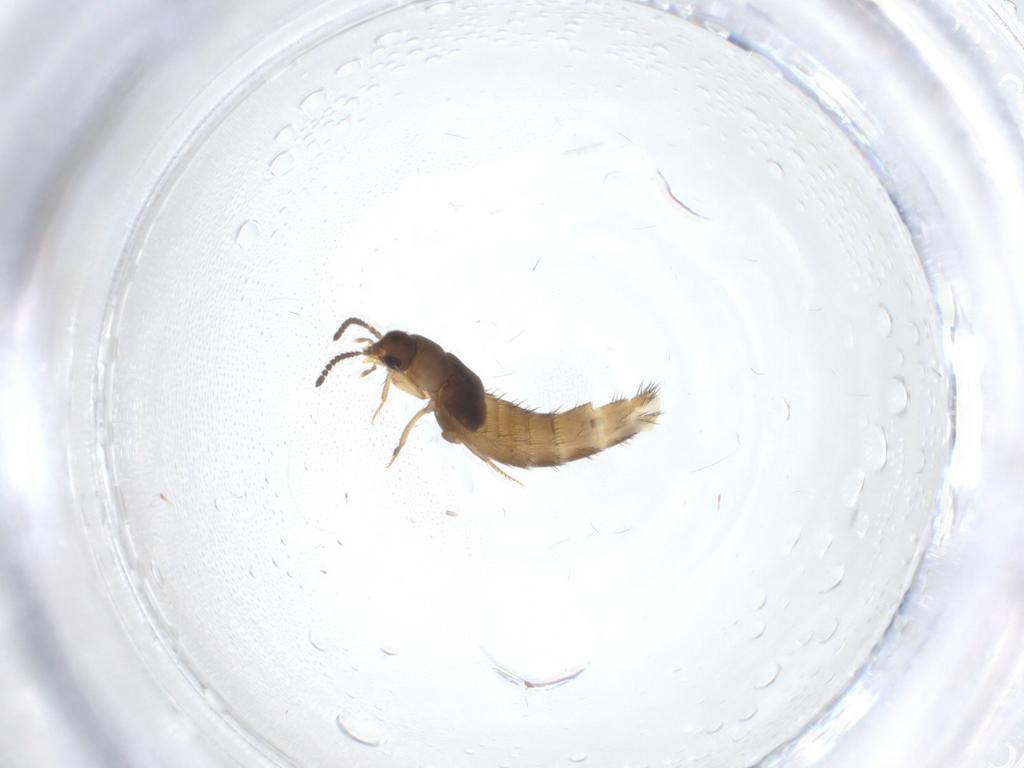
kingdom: Animalia
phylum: Arthropoda
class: Insecta
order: Coleoptera
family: Staphylinidae
